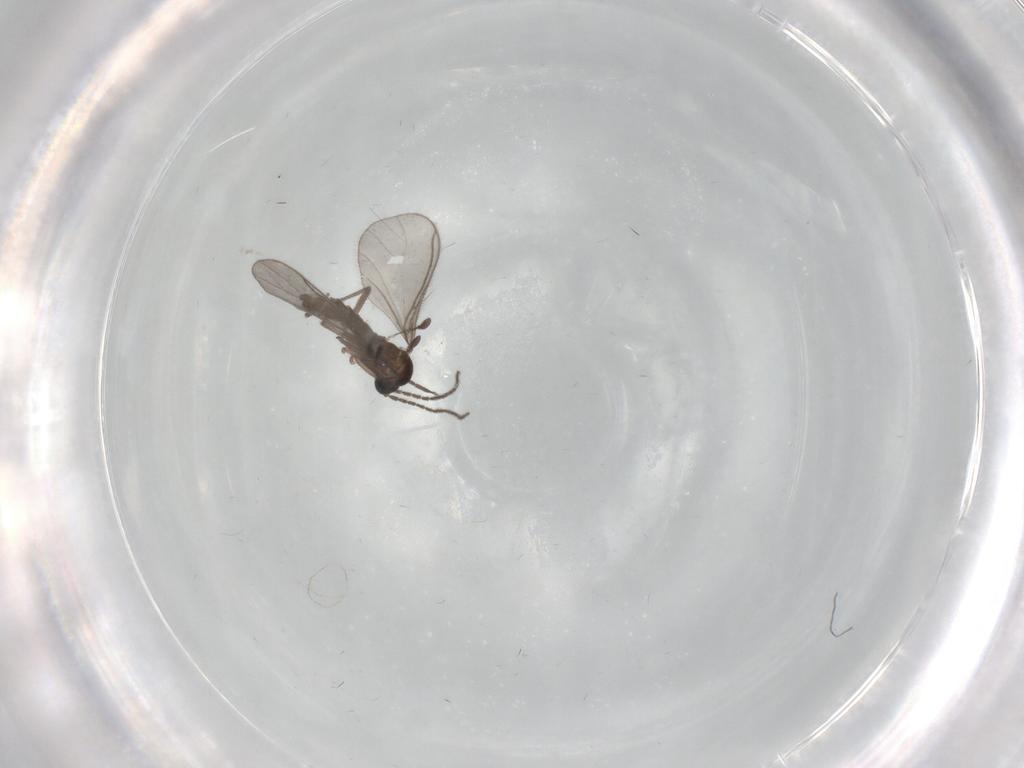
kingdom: Animalia
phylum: Arthropoda
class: Insecta
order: Diptera
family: Sciaridae
